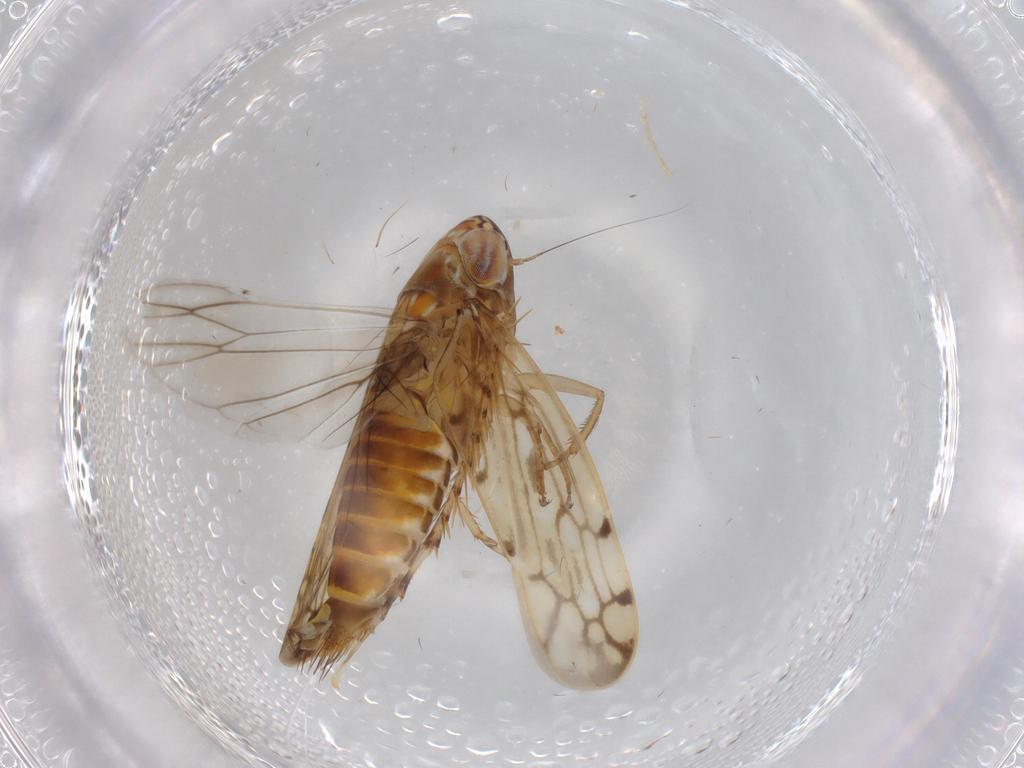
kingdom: Animalia
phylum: Arthropoda
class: Insecta
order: Hemiptera
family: Cicadellidae
